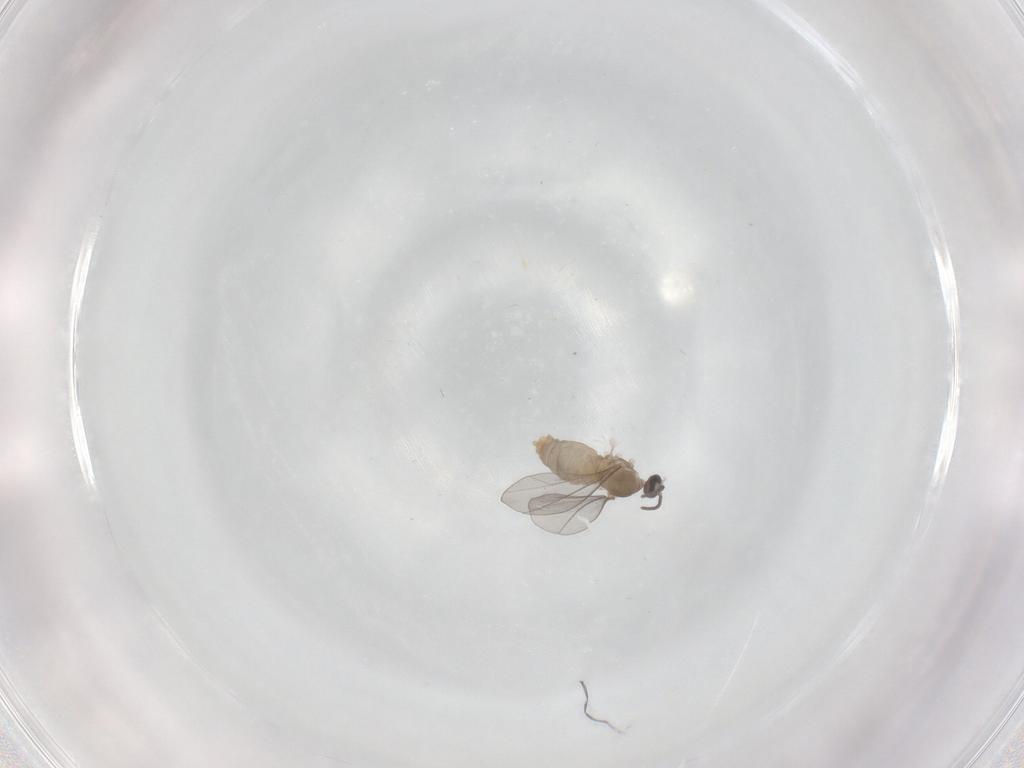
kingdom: Animalia
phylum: Arthropoda
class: Insecta
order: Diptera
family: Cecidomyiidae
